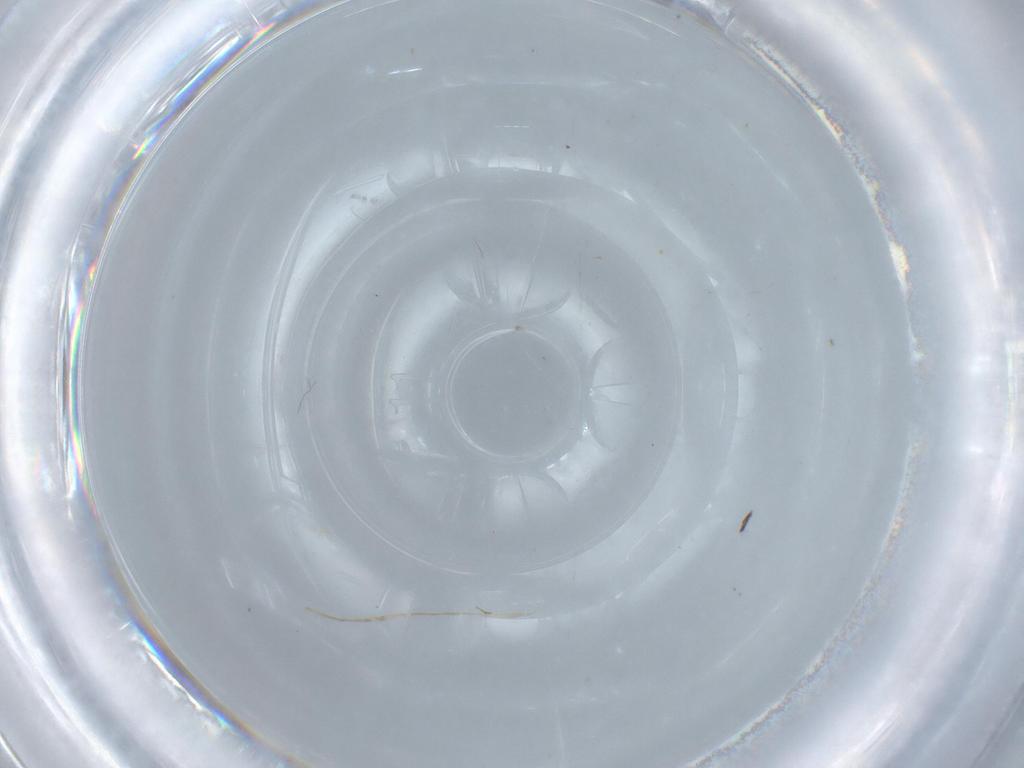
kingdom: Animalia
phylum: Arthropoda
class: Insecta
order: Hymenoptera
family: Mymaridae
